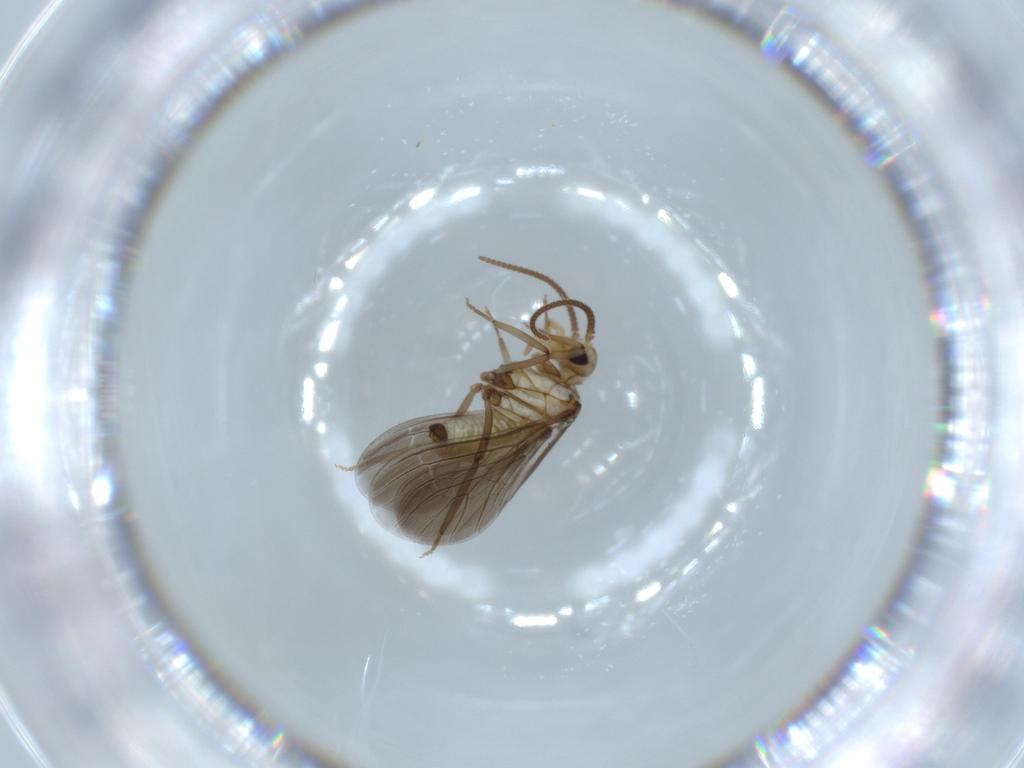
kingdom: Animalia
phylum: Arthropoda
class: Insecta
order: Neuroptera
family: Coniopterygidae
